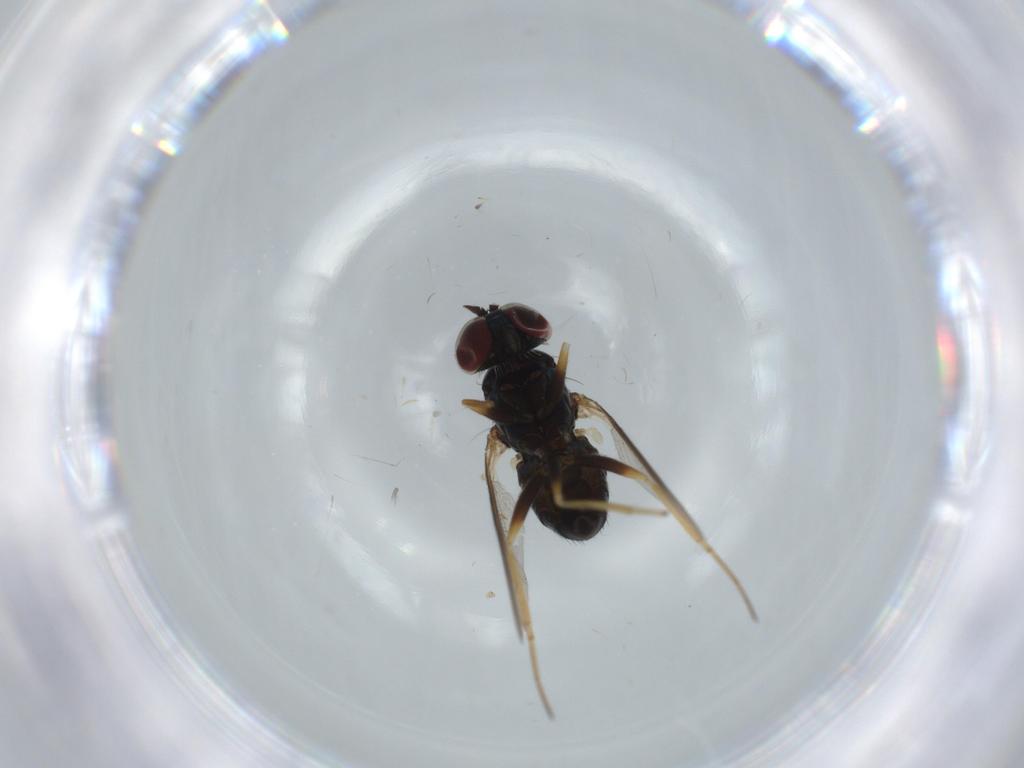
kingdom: Animalia
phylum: Arthropoda
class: Insecta
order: Diptera
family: Dolichopodidae
